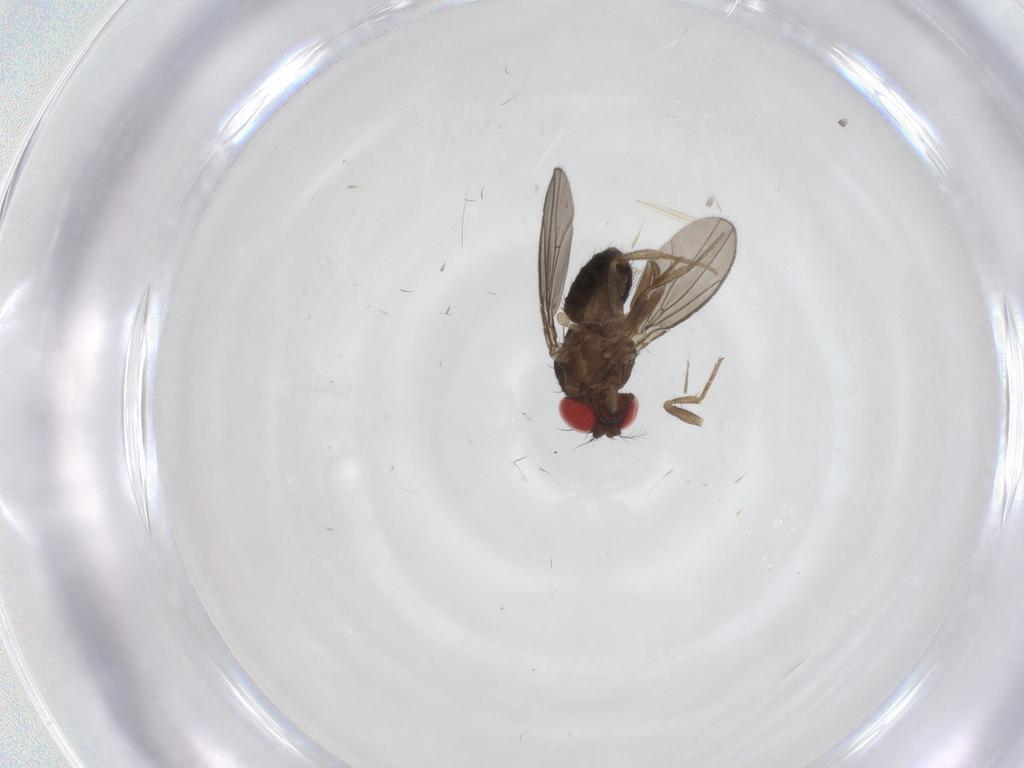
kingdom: Animalia
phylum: Arthropoda
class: Insecta
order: Diptera
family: Drosophilidae
